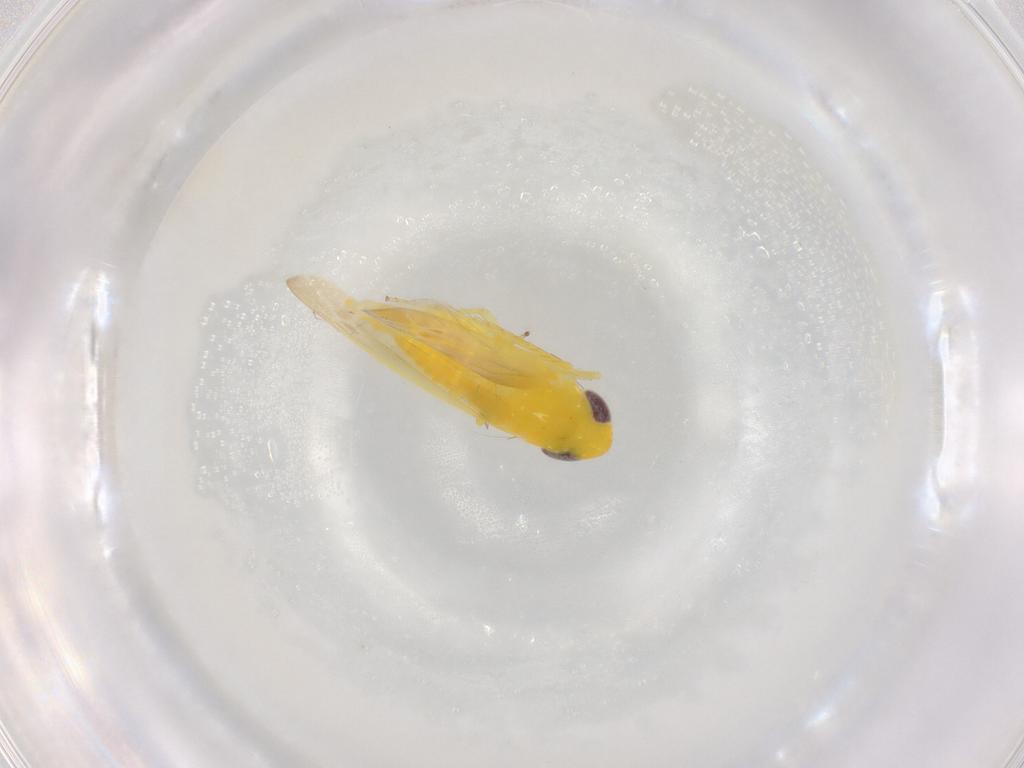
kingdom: Animalia
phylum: Arthropoda
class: Insecta
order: Hemiptera
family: Cicadellidae
